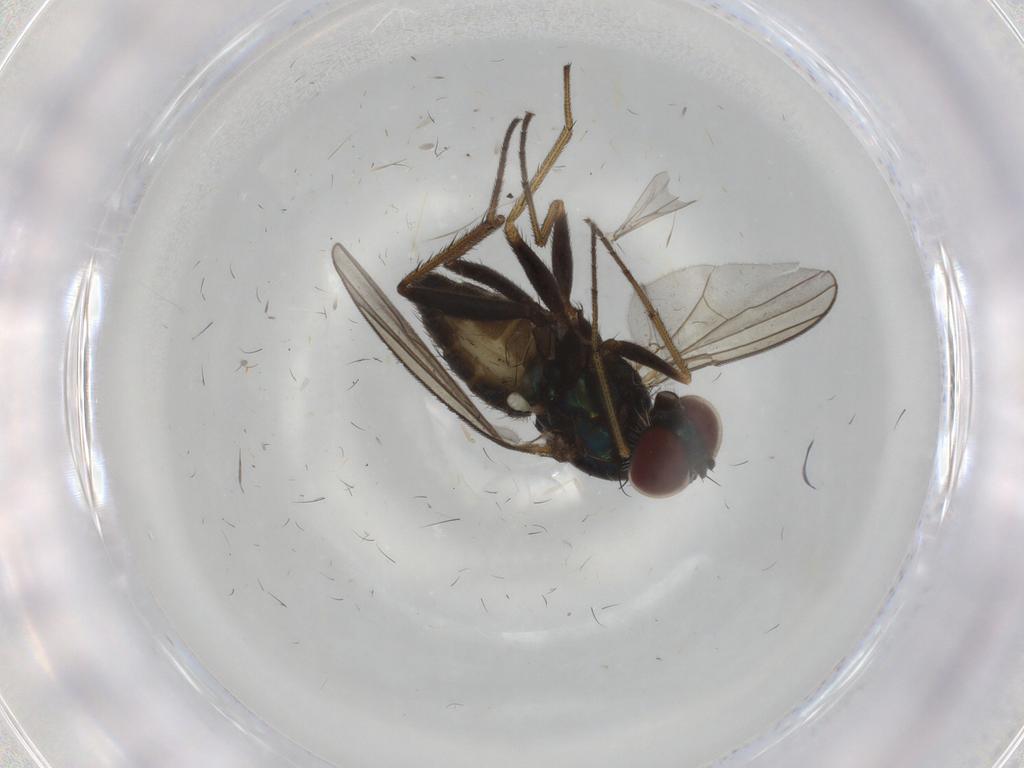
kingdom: Animalia
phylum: Arthropoda
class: Insecta
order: Diptera
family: Dolichopodidae
